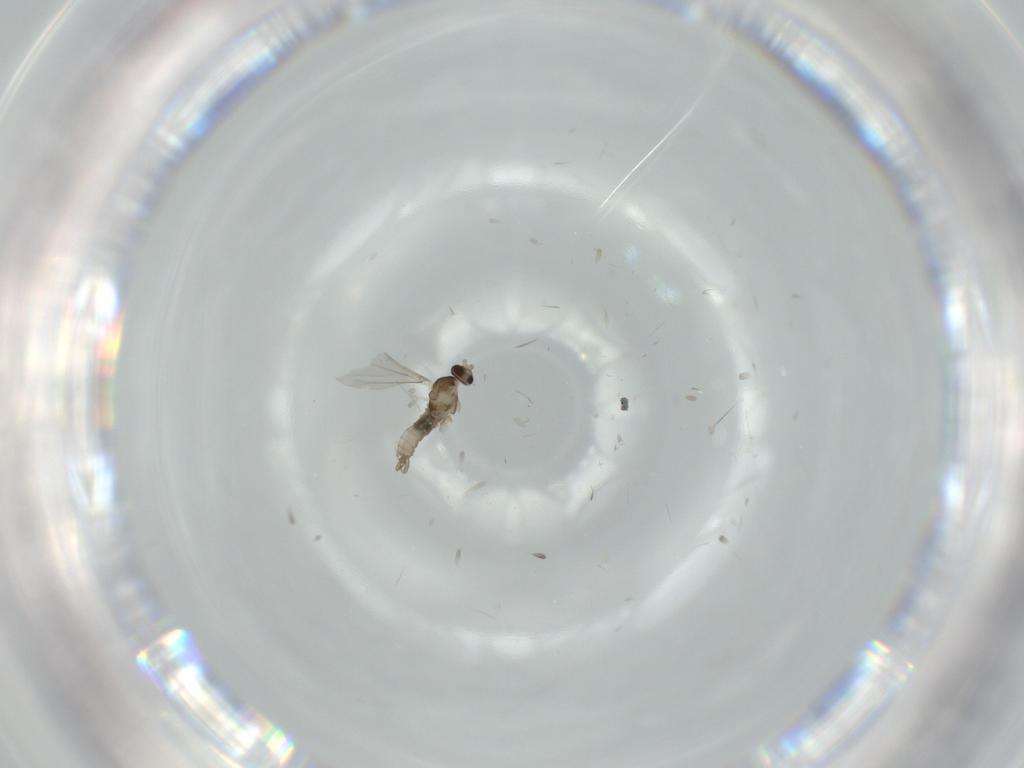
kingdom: Animalia
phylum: Arthropoda
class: Insecta
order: Diptera
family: Cecidomyiidae
